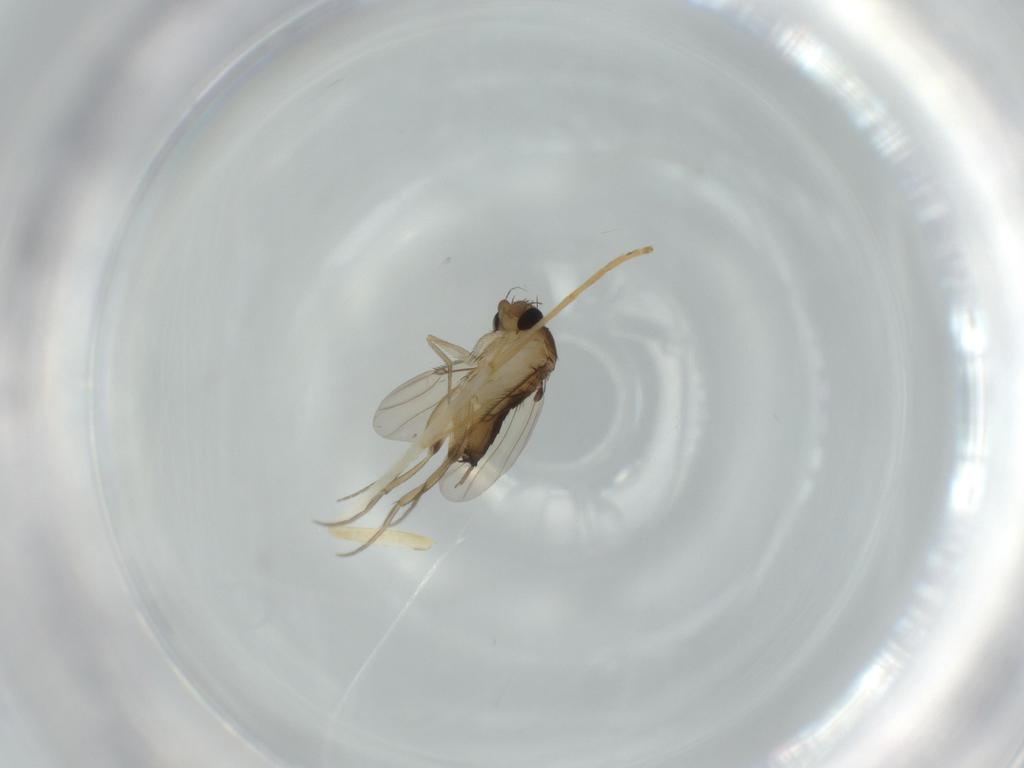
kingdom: Animalia
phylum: Arthropoda
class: Insecta
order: Diptera
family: Phoridae
